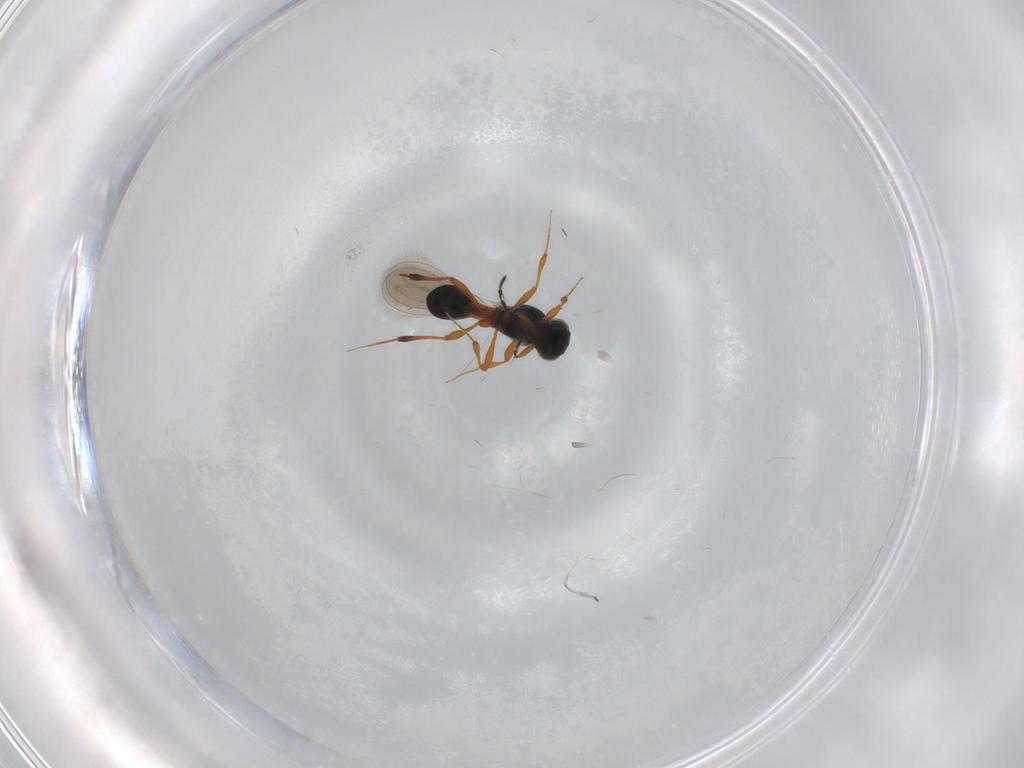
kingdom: Animalia
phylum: Arthropoda
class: Insecta
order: Hymenoptera
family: Platygastridae
